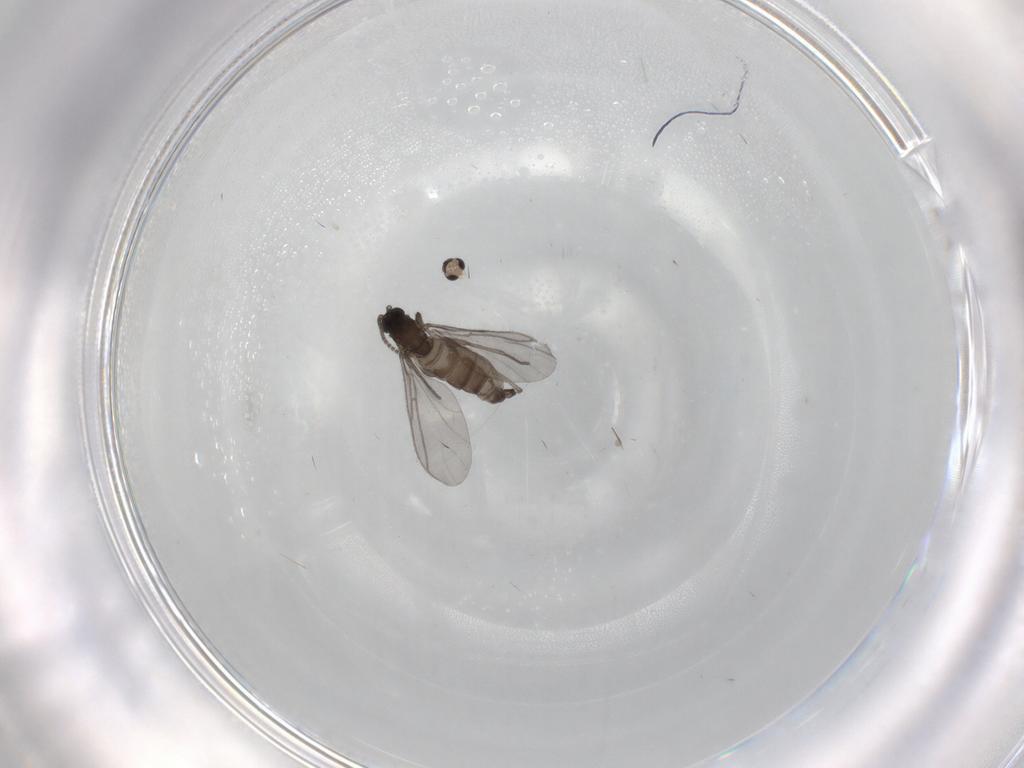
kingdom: Animalia
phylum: Arthropoda
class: Insecta
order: Diptera
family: Sciaridae
